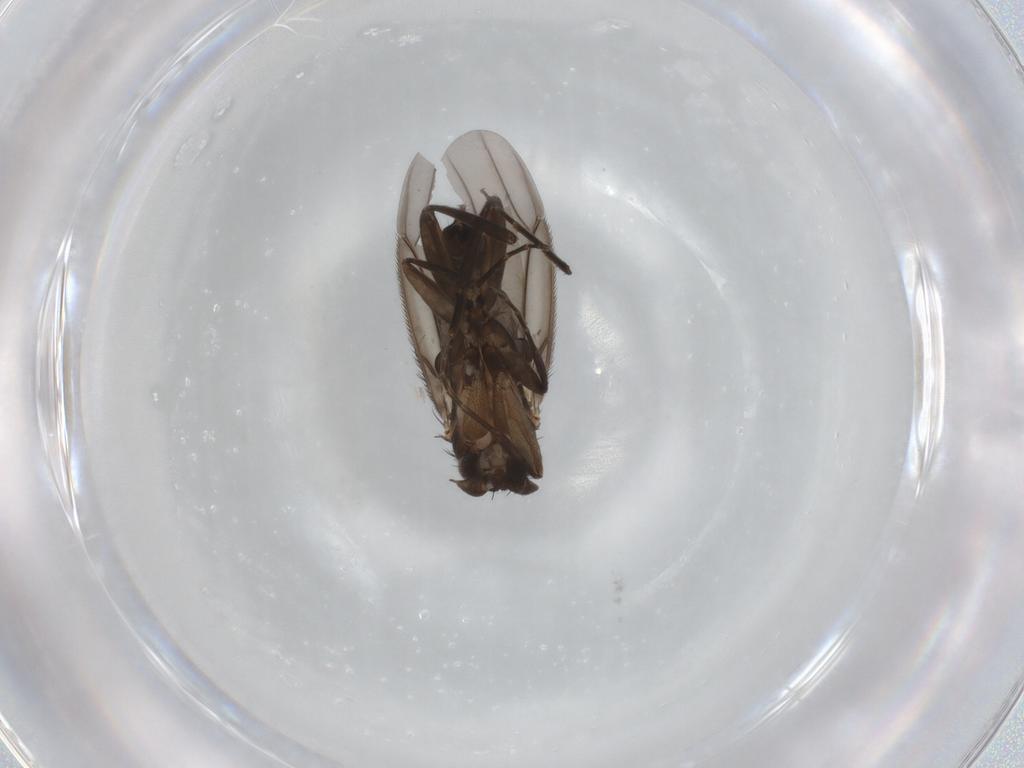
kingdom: Animalia
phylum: Arthropoda
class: Insecta
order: Diptera
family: Phoridae
